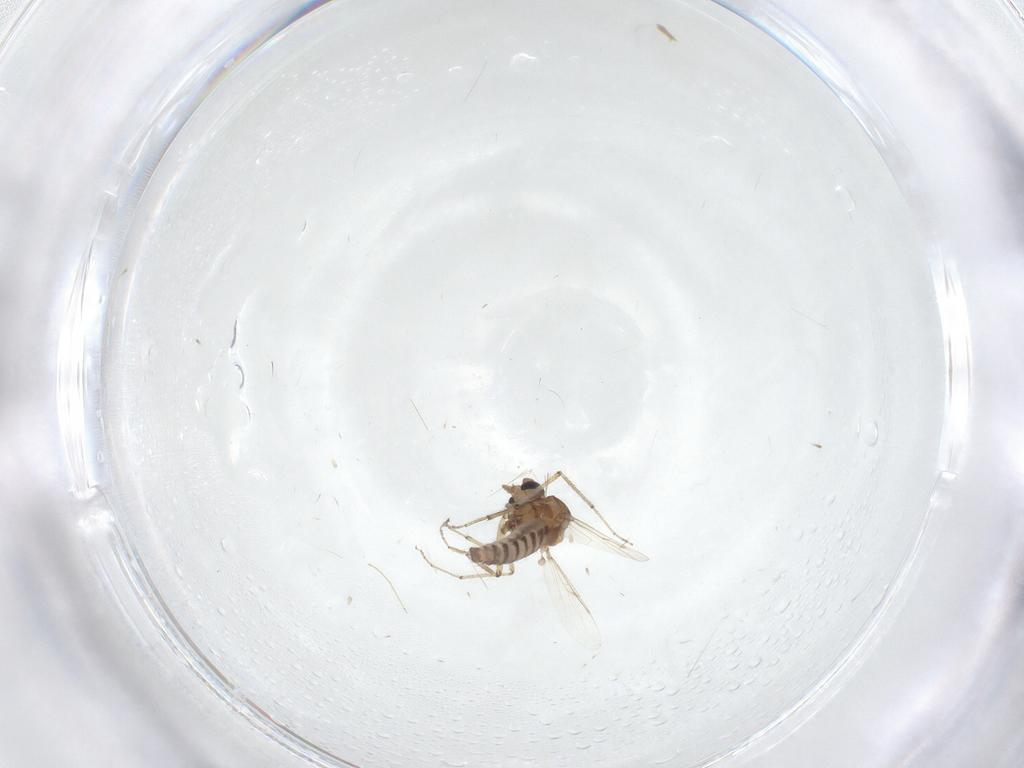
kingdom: Animalia
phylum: Arthropoda
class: Insecta
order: Diptera
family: Ceratopogonidae
